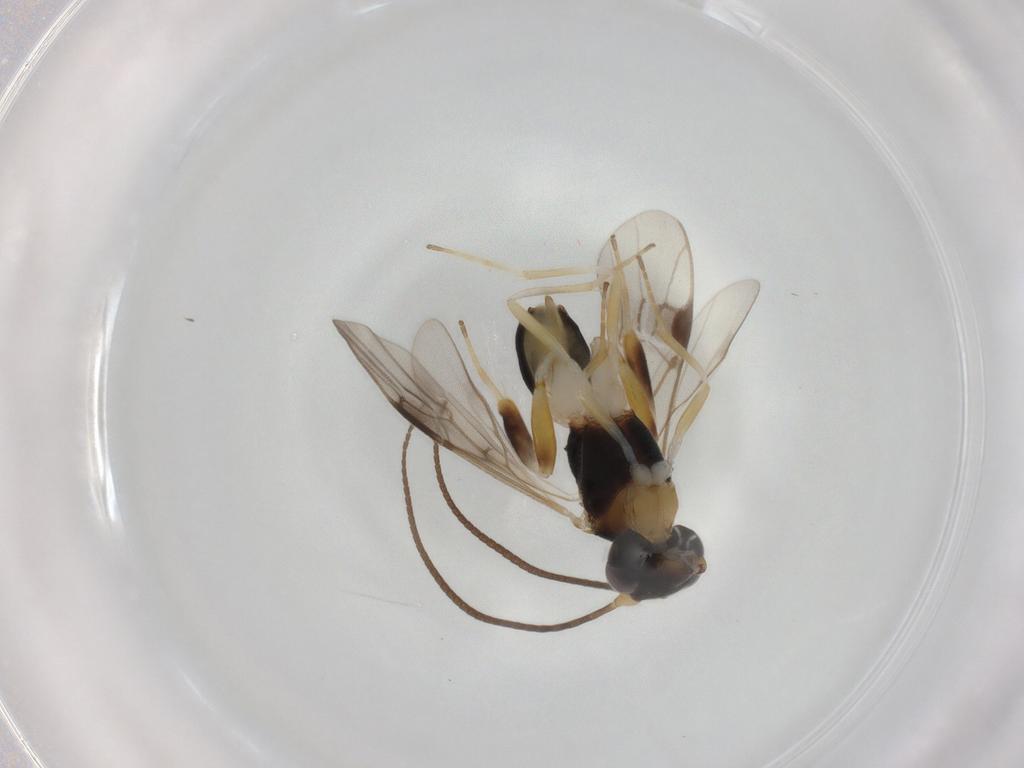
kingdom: Animalia
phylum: Arthropoda
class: Insecta
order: Hymenoptera
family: Braconidae
